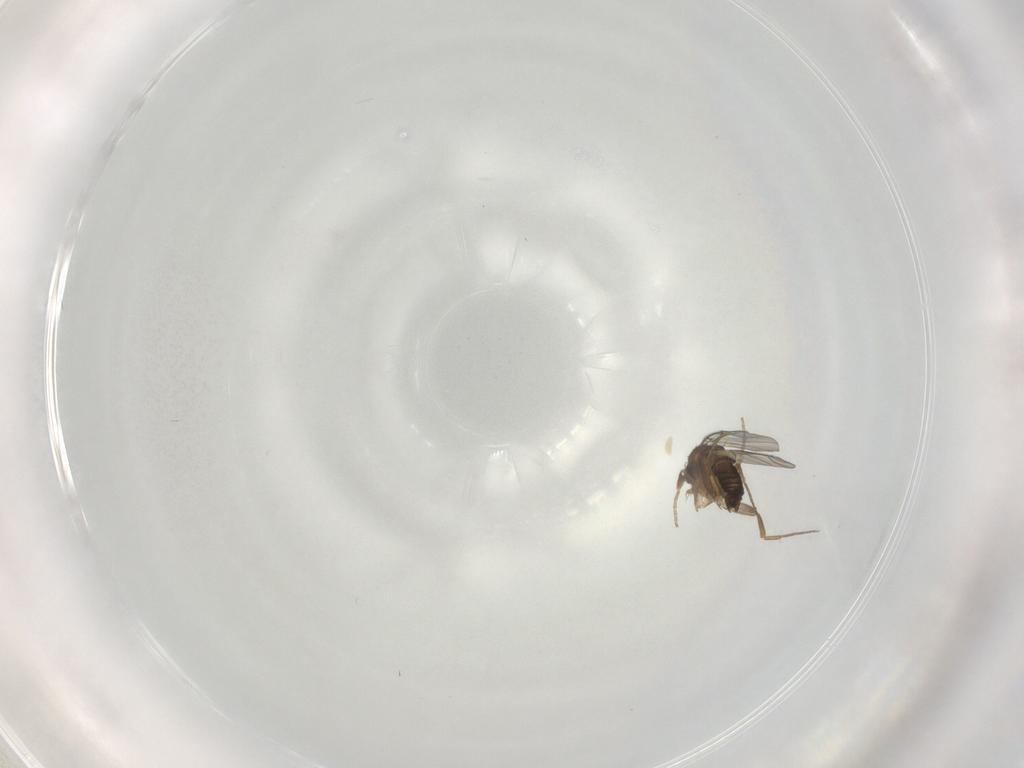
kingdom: Animalia
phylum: Arthropoda
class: Insecta
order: Diptera
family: Phoridae
